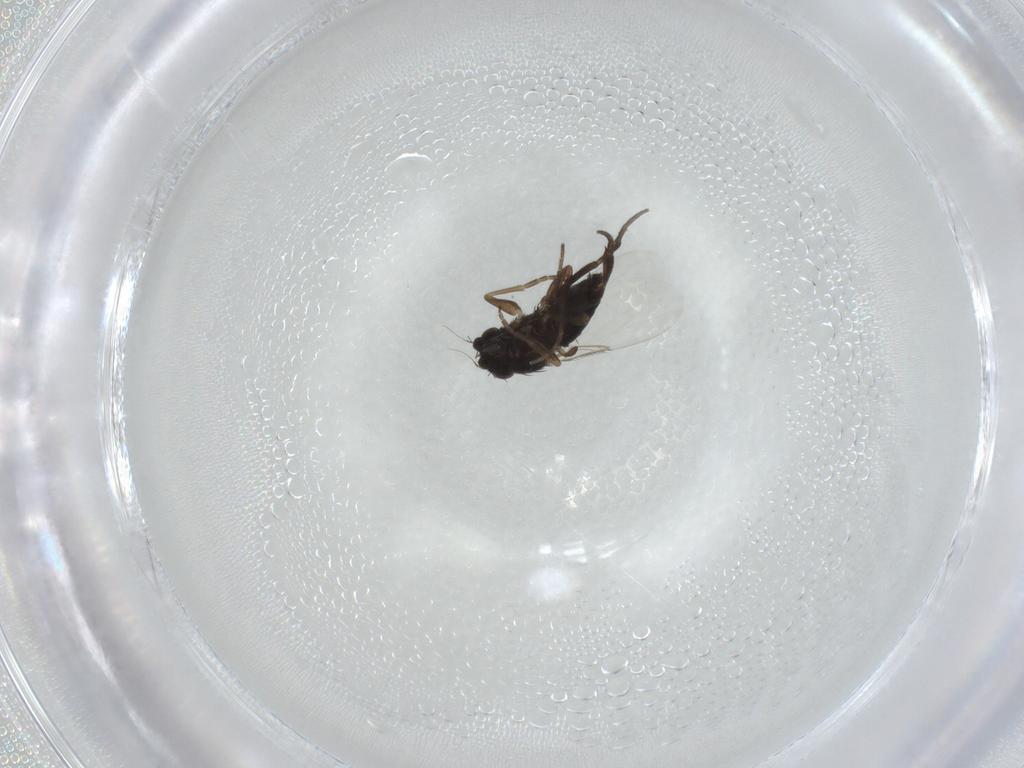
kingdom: Animalia
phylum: Arthropoda
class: Insecta
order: Diptera
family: Phoridae
